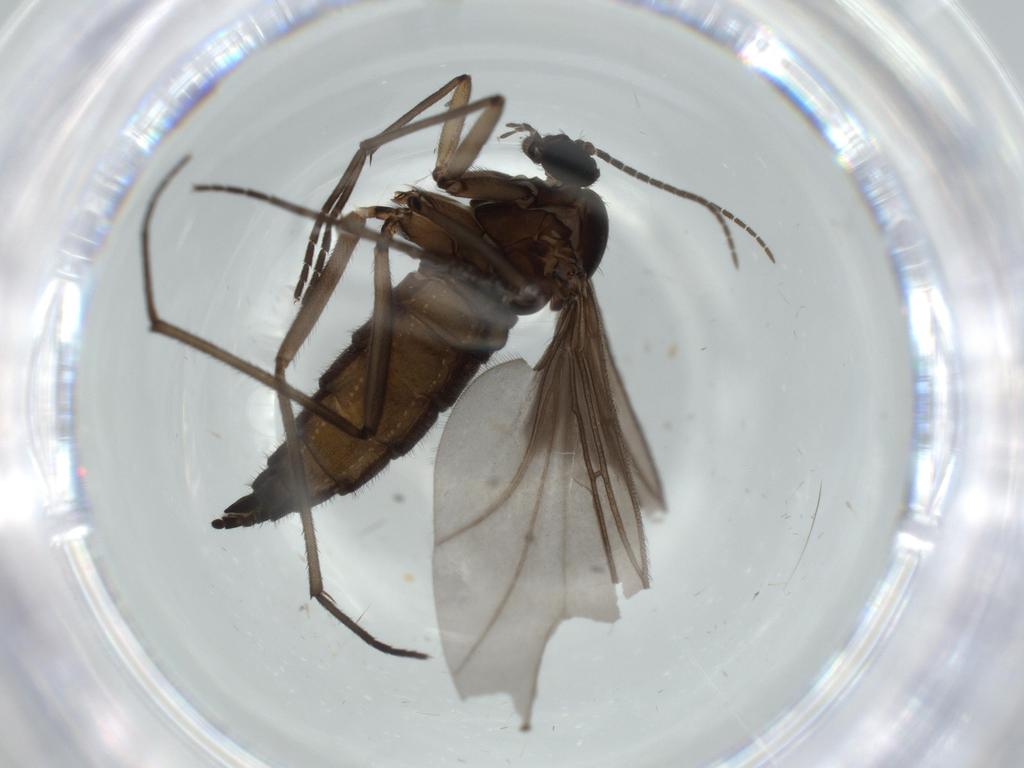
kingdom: Animalia
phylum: Arthropoda
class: Insecta
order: Diptera
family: Sciaridae
